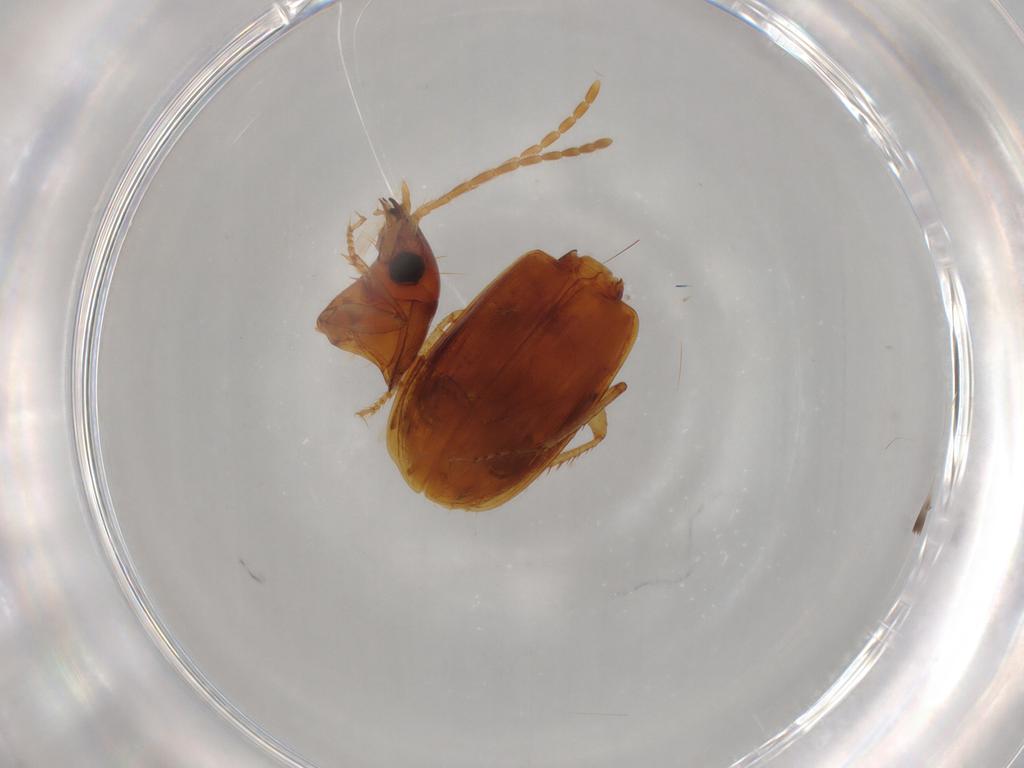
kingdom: Animalia
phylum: Arthropoda
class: Insecta
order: Coleoptera
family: Carabidae
